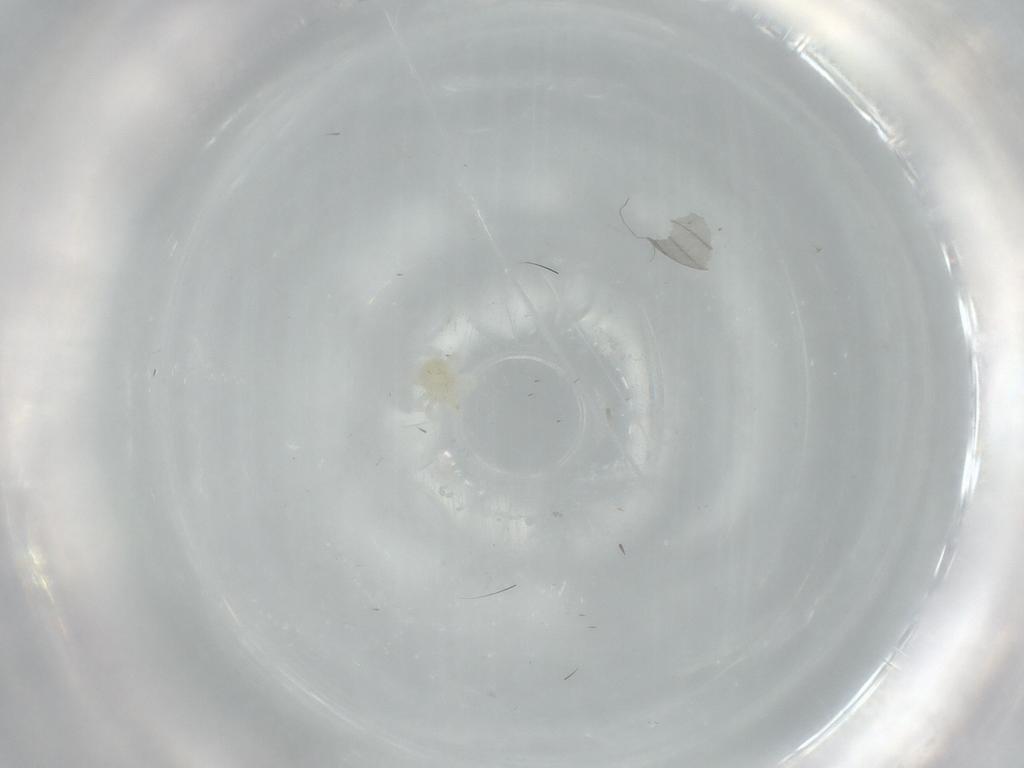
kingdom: Animalia
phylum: Arthropoda
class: Arachnida
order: Trombidiformes
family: Anystidae
